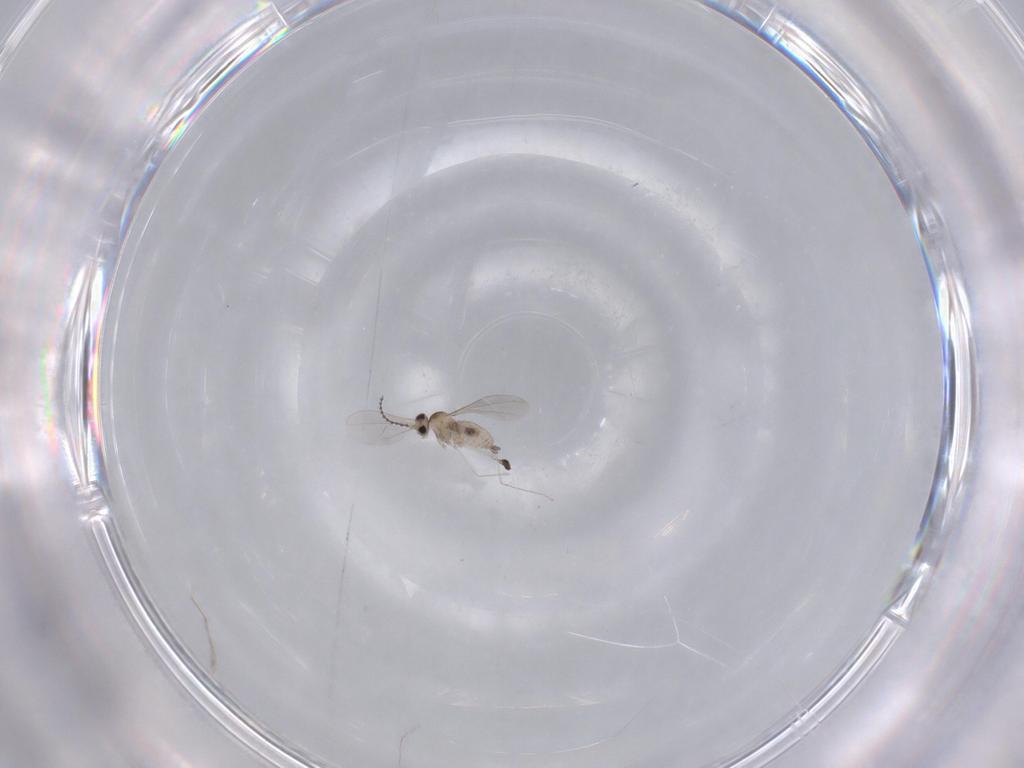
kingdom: Animalia
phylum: Arthropoda
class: Insecta
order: Diptera
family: Cecidomyiidae
